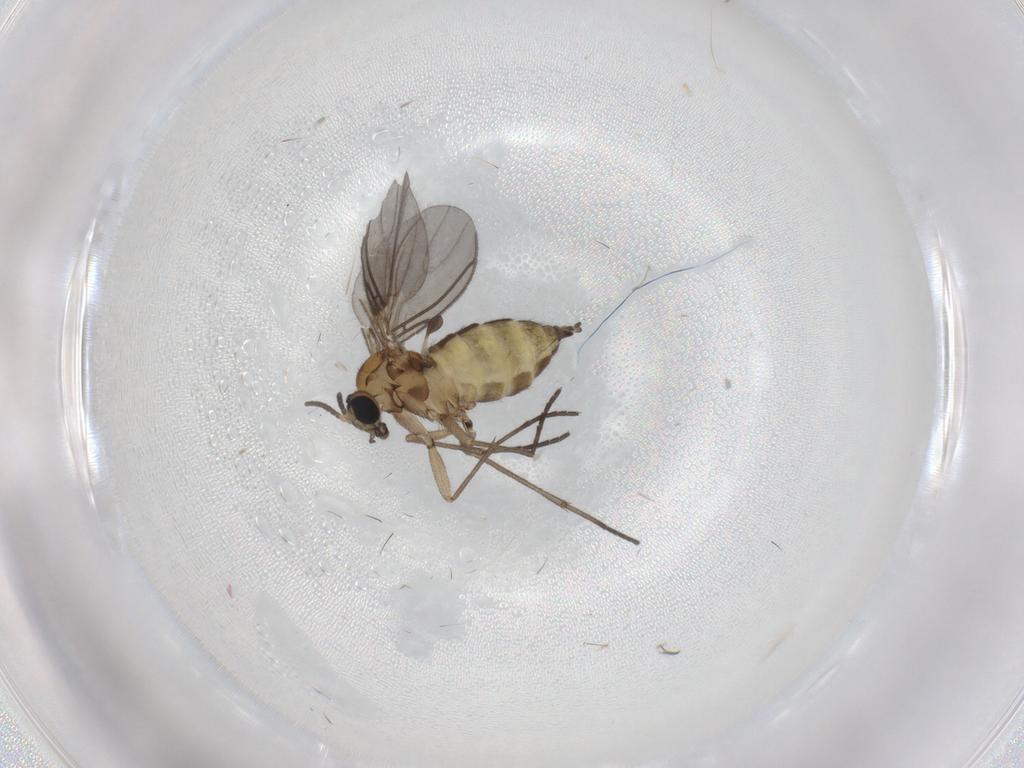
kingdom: Animalia
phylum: Arthropoda
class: Insecta
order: Diptera
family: Sciaridae
